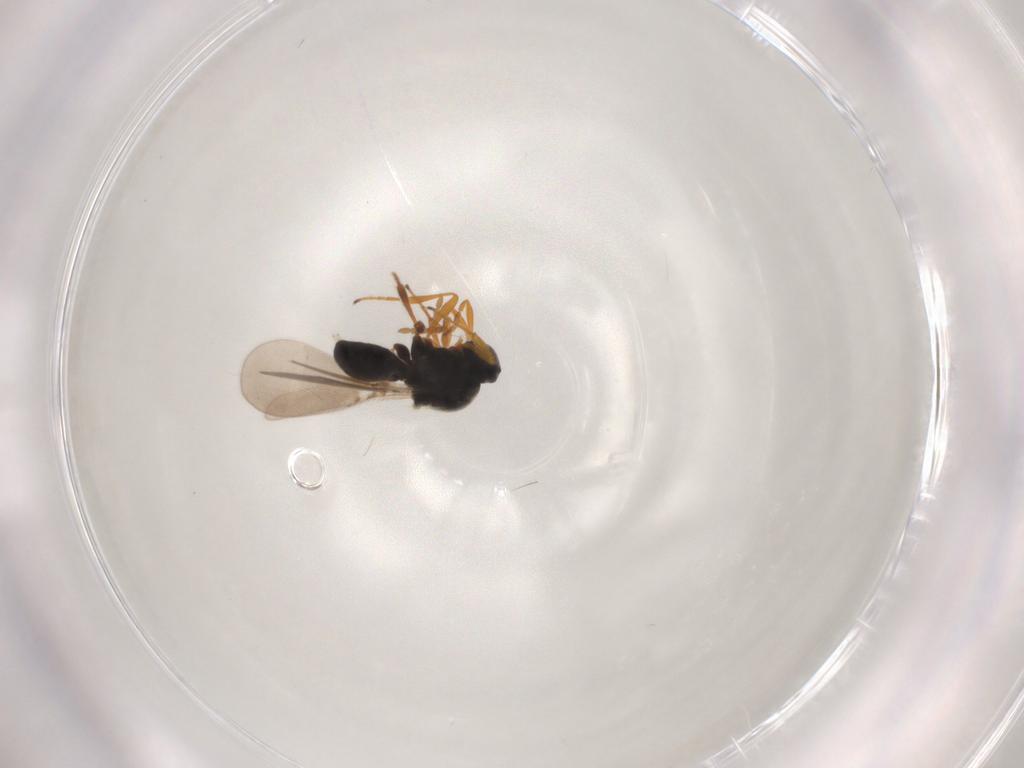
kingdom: Animalia
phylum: Arthropoda
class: Insecta
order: Hymenoptera
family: Platygastridae
